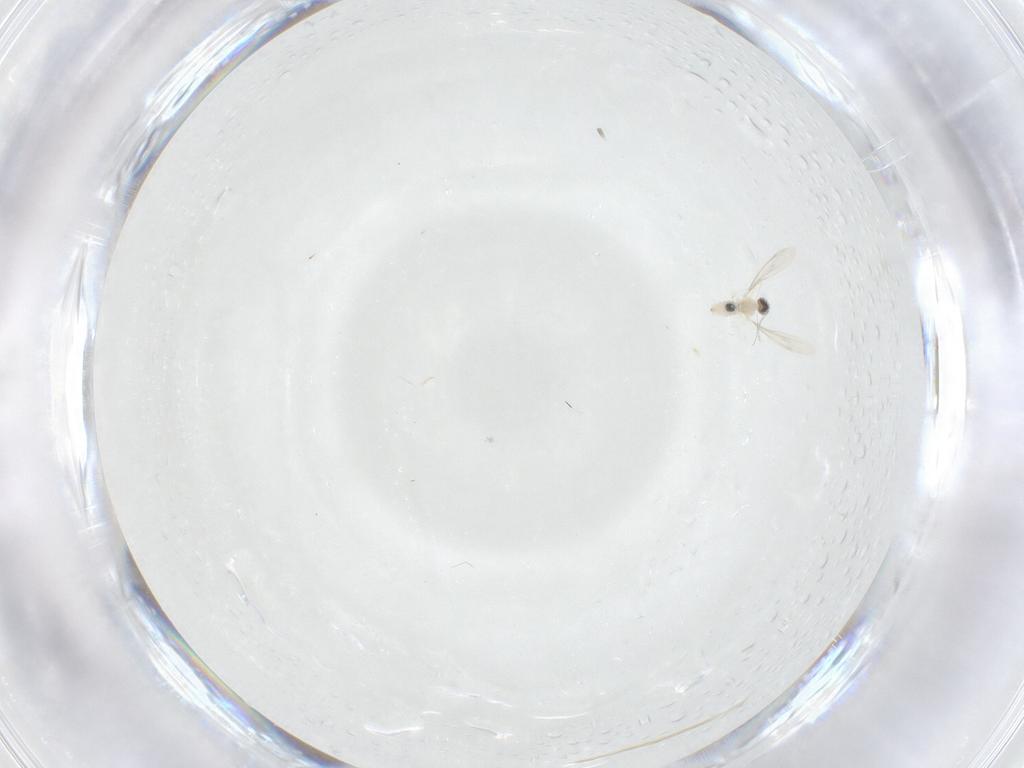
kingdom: Animalia
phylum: Arthropoda
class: Insecta
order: Diptera
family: Cecidomyiidae
